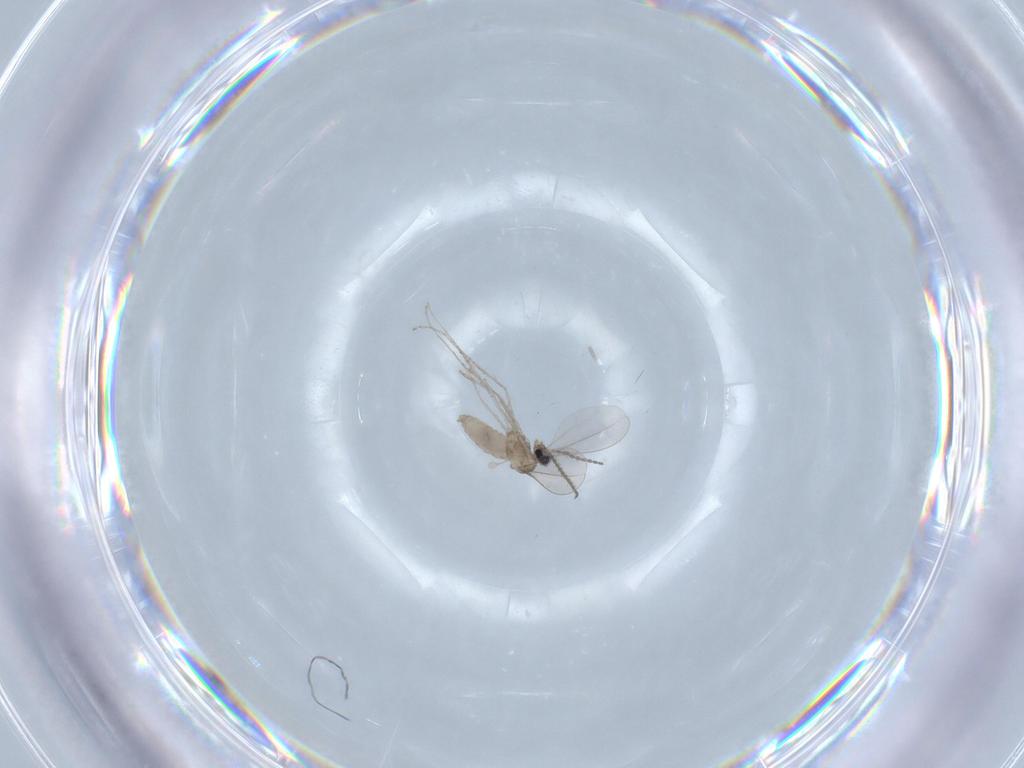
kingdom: Animalia
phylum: Arthropoda
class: Insecta
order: Diptera
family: Cecidomyiidae
